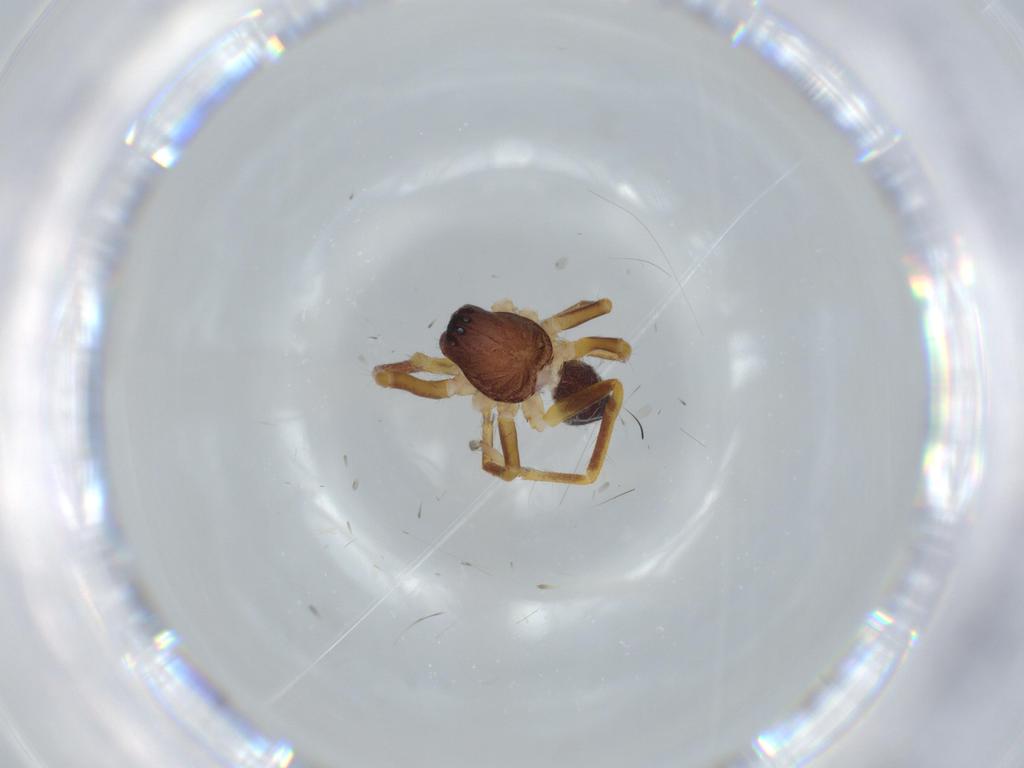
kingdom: Animalia
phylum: Arthropoda
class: Arachnida
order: Araneae
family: Corinnidae
